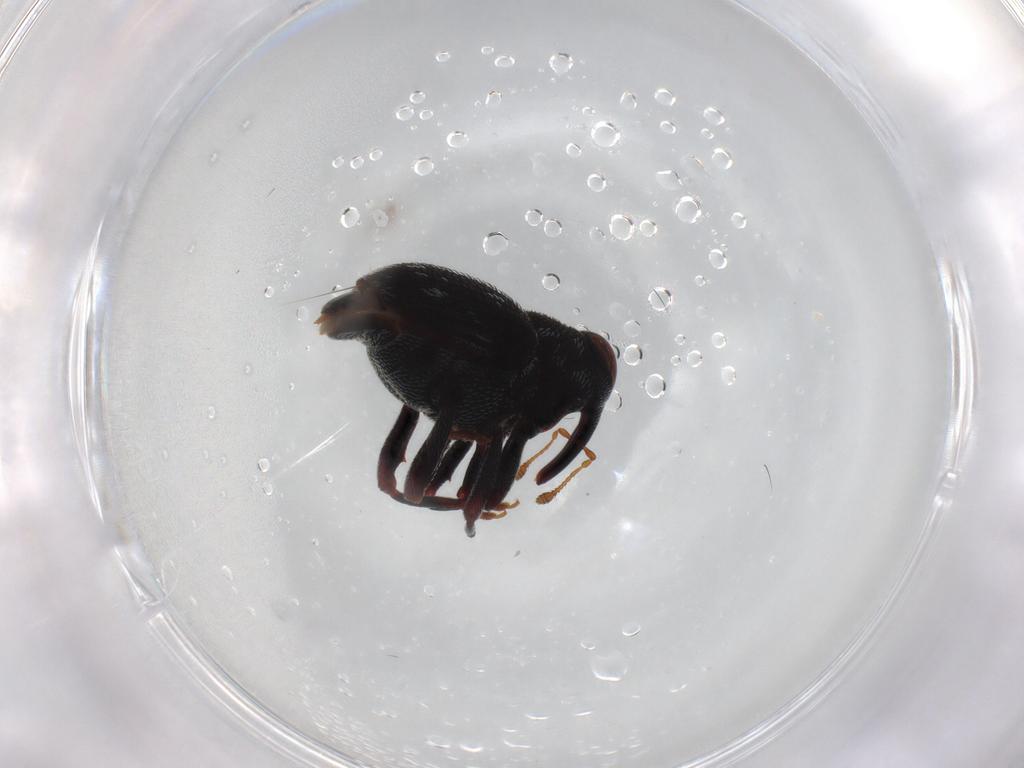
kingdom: Animalia
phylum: Arthropoda
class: Insecta
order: Coleoptera
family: Curculionidae
